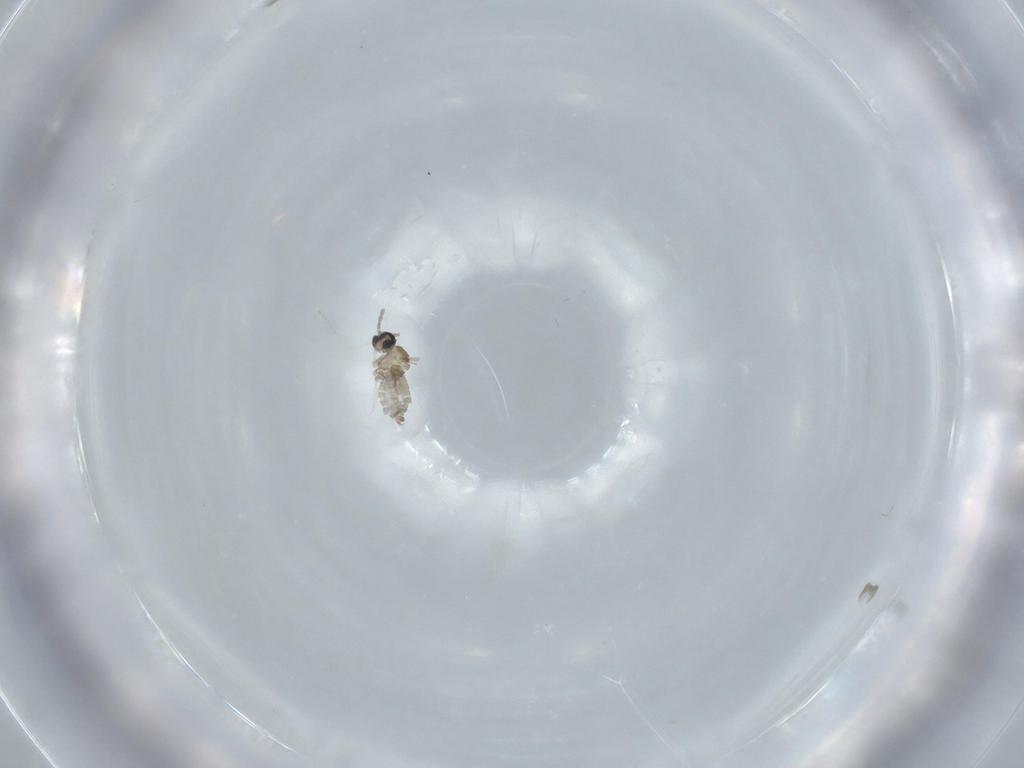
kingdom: Animalia
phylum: Arthropoda
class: Insecta
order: Diptera
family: Cecidomyiidae
